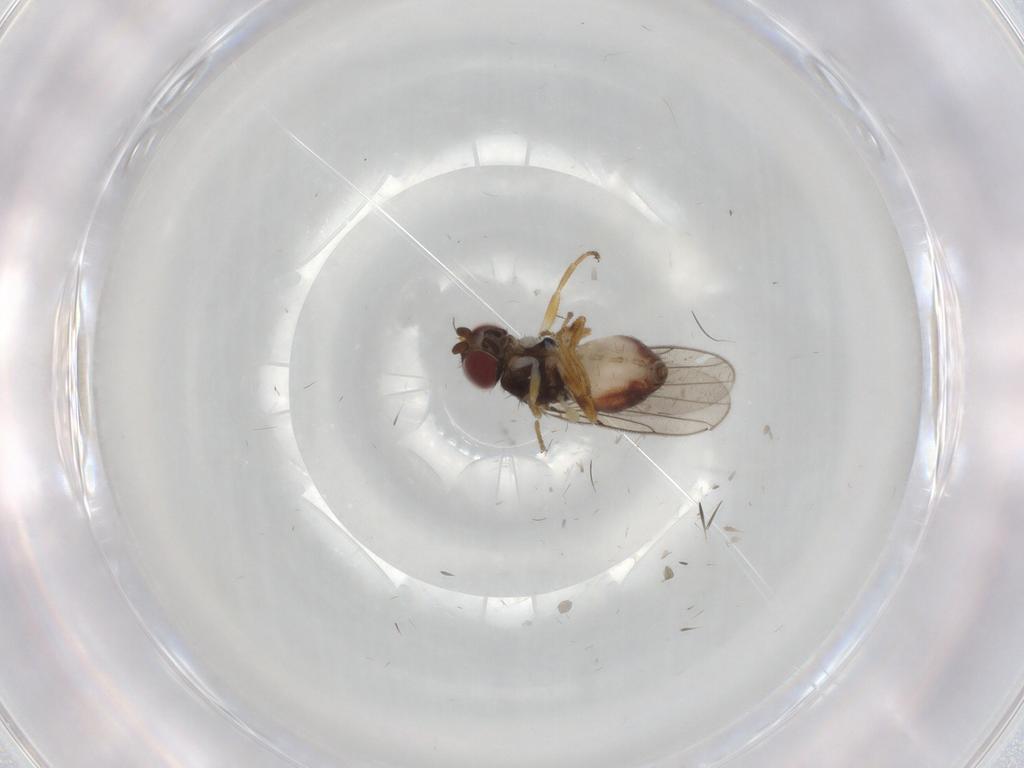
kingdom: Animalia
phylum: Arthropoda
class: Insecta
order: Diptera
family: Chloropidae
